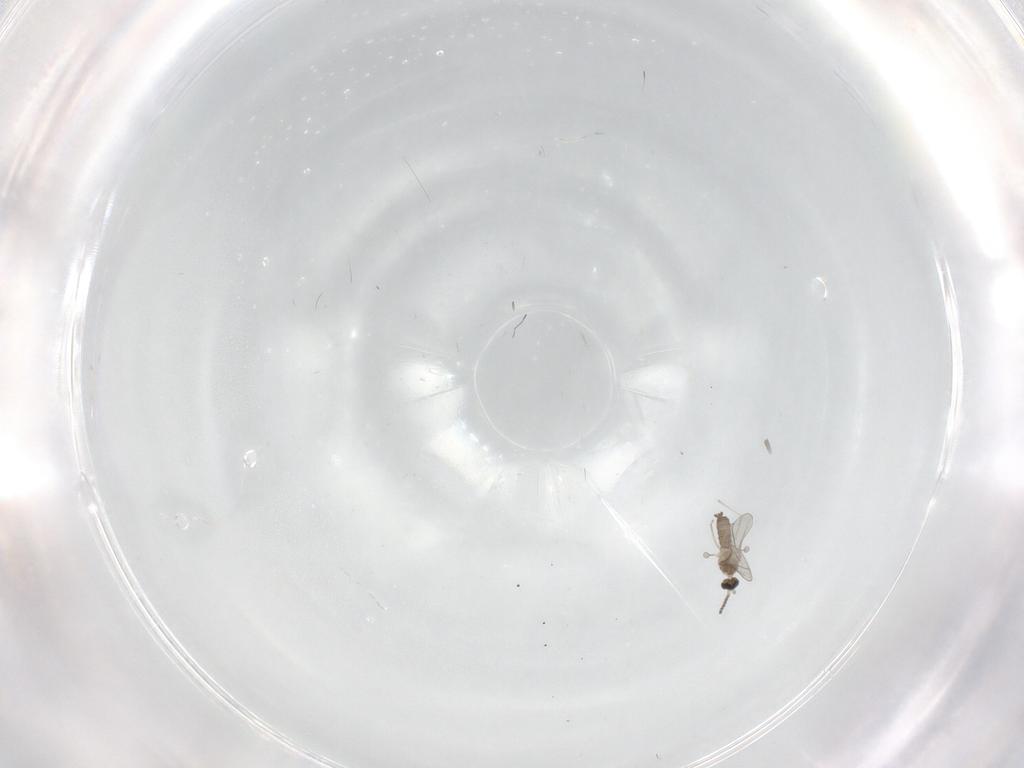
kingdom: Animalia
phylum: Arthropoda
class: Insecta
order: Diptera
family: Cecidomyiidae
